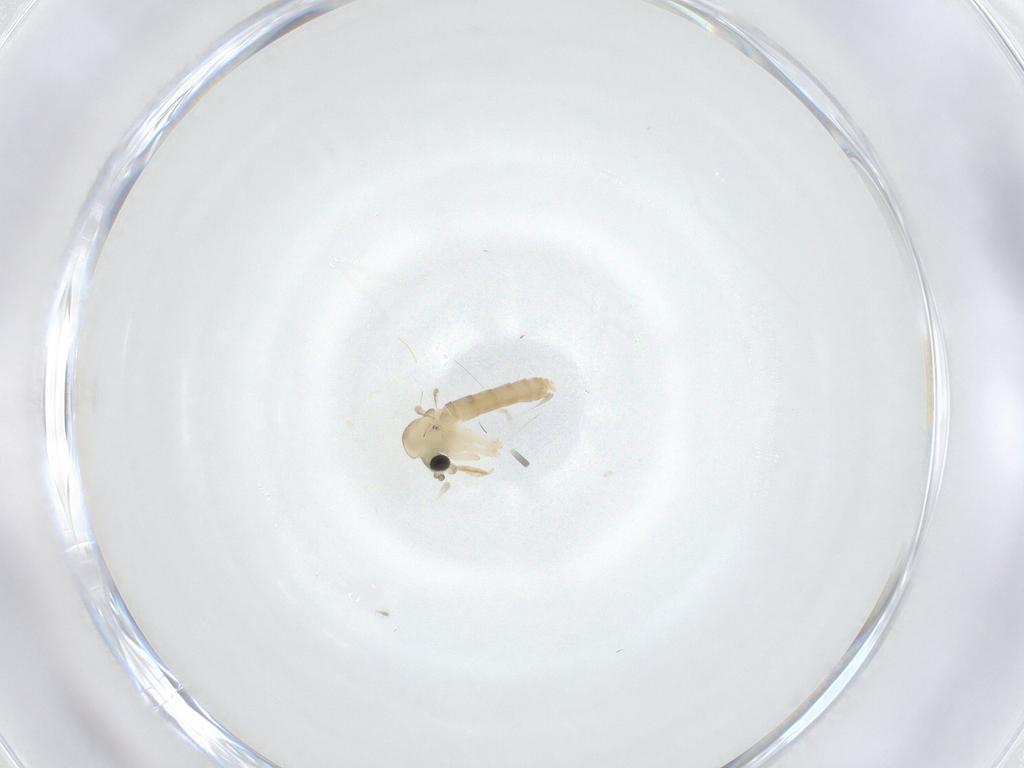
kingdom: Animalia
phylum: Arthropoda
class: Insecta
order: Diptera
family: Psychodidae
